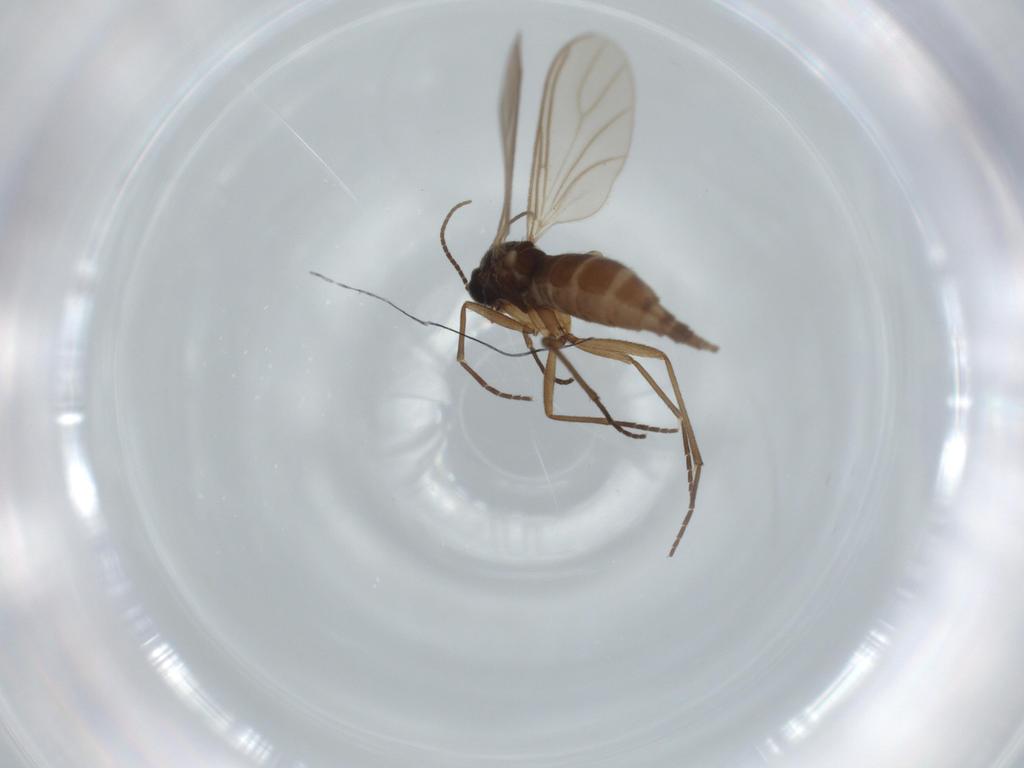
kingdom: Animalia
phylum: Arthropoda
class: Insecta
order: Diptera
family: Sciaridae
